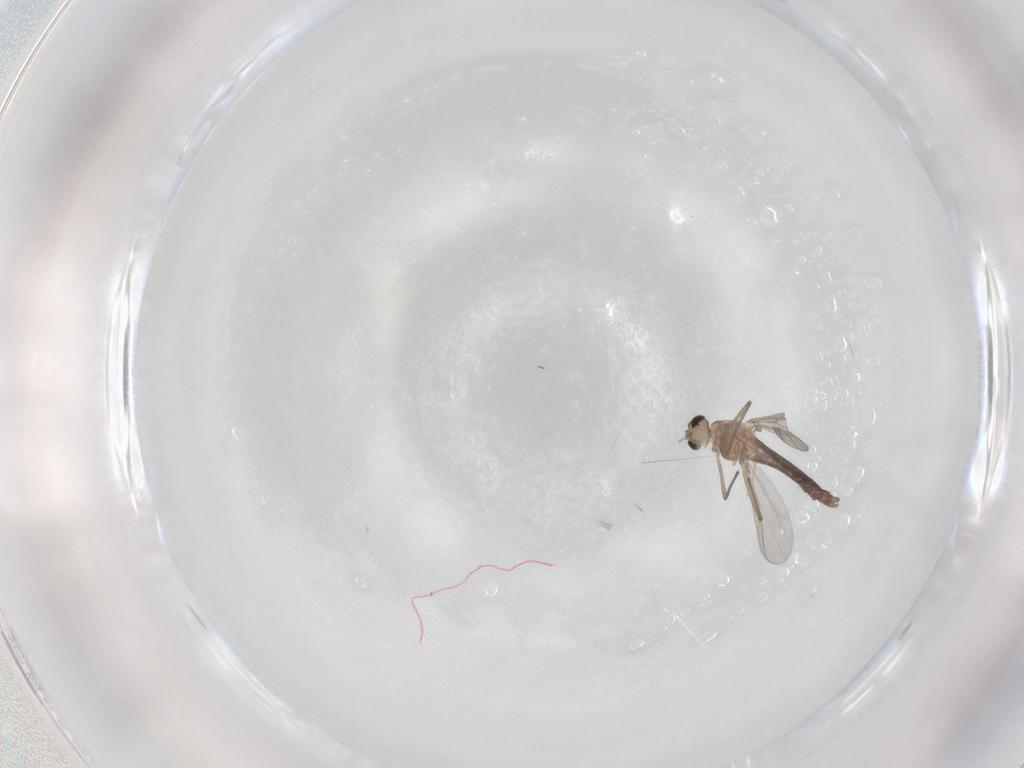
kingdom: Animalia
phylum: Arthropoda
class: Insecta
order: Diptera
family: Chironomidae
